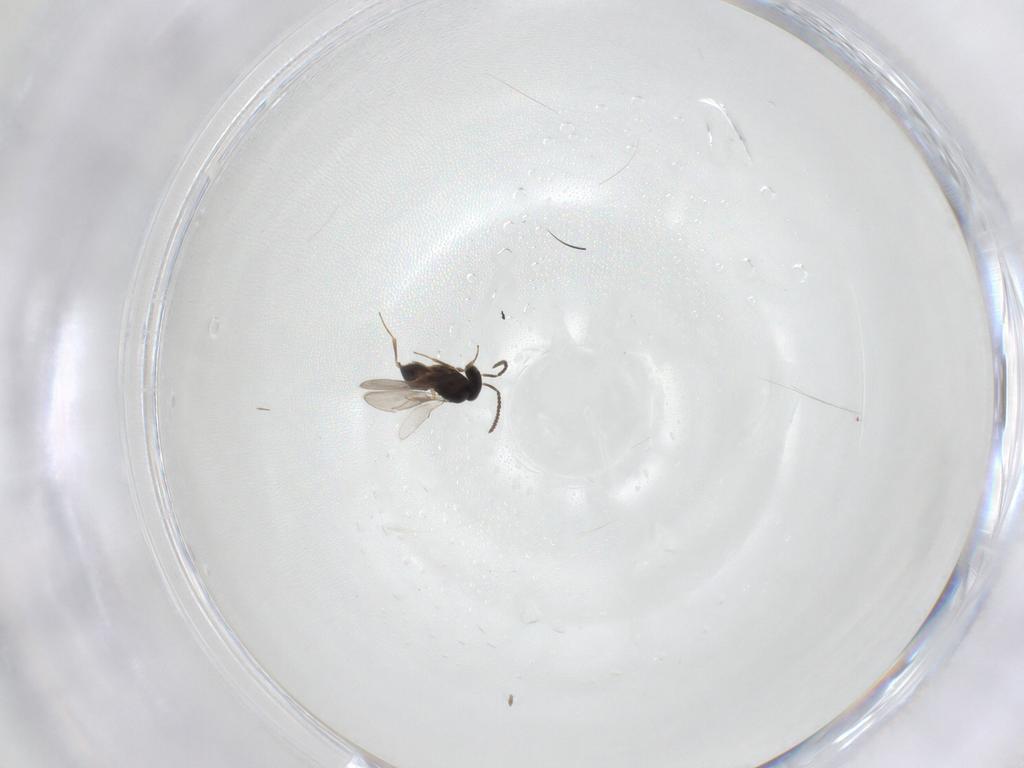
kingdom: Animalia
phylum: Arthropoda
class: Insecta
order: Hymenoptera
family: Scelionidae
